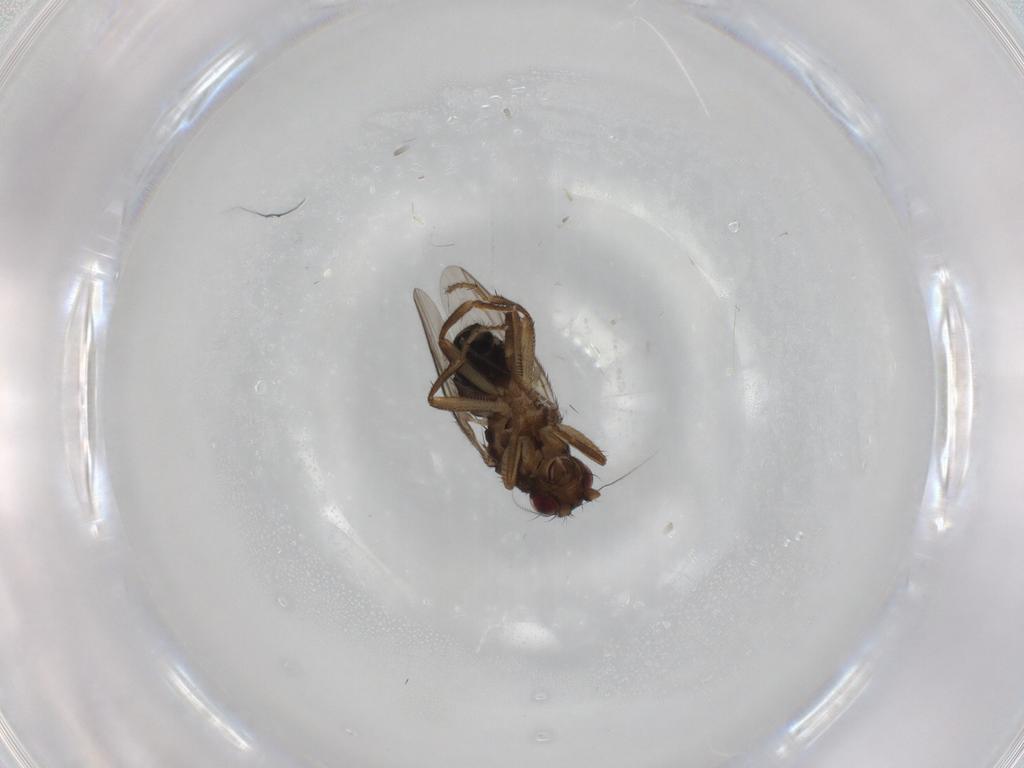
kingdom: Animalia
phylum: Arthropoda
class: Insecta
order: Diptera
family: Sphaeroceridae
